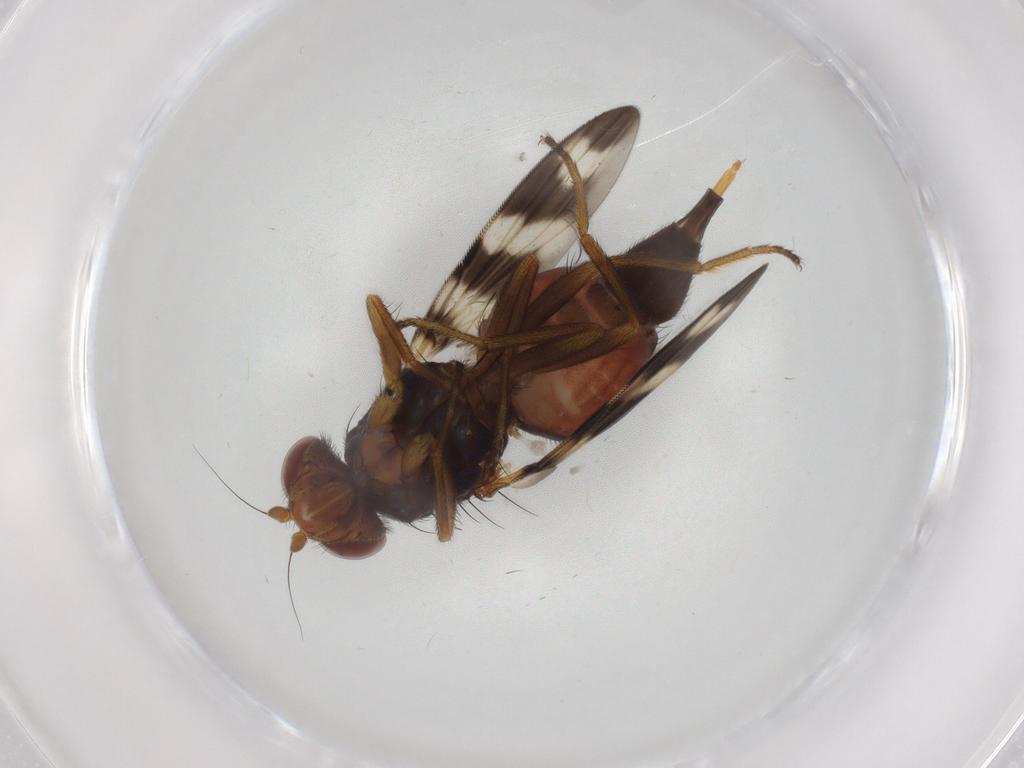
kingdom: Animalia
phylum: Arthropoda
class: Insecta
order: Diptera
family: Ulidiidae
